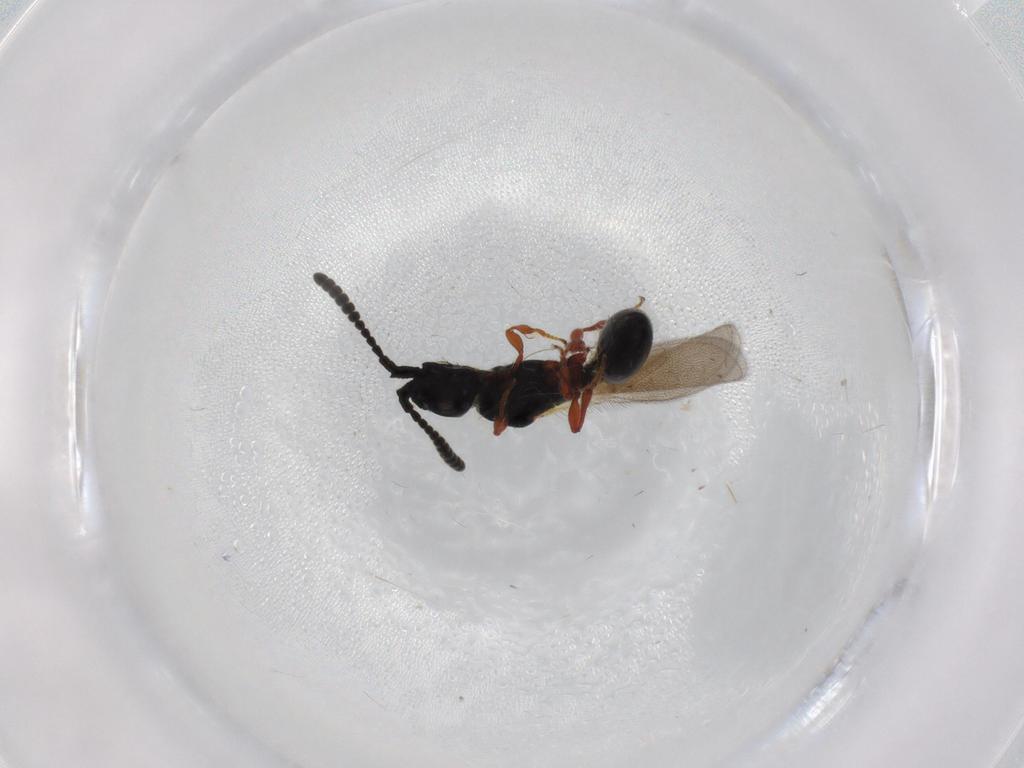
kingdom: Animalia
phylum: Arthropoda
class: Insecta
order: Hymenoptera
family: Diapriidae
